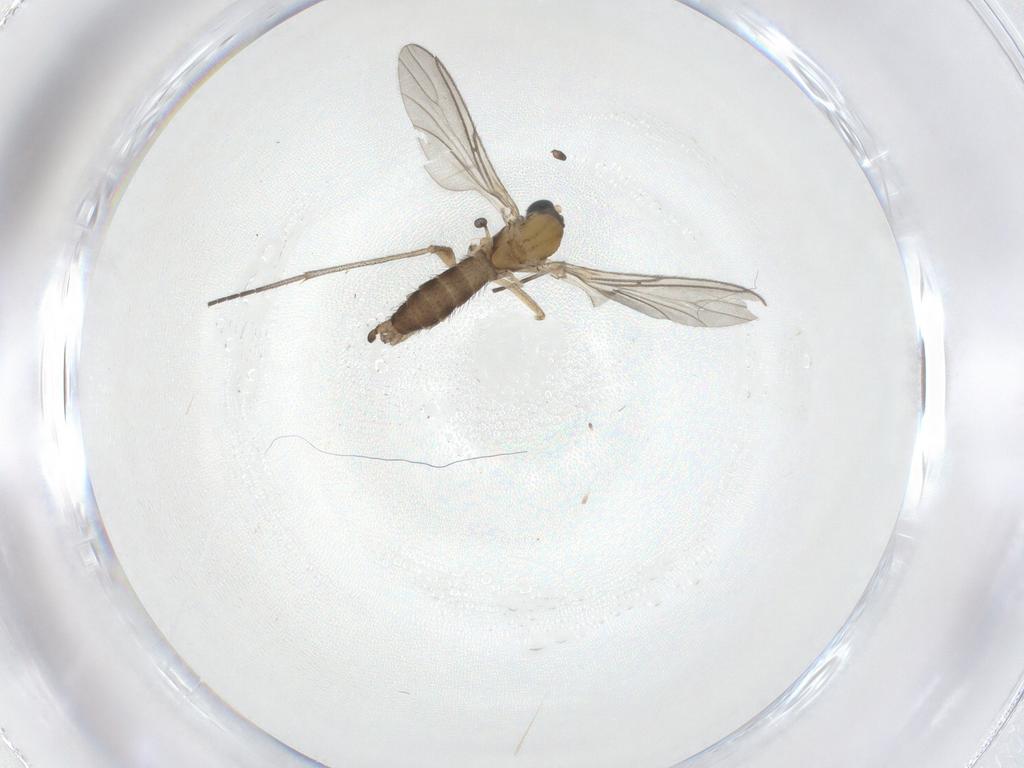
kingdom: Animalia
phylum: Arthropoda
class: Insecta
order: Diptera
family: Sciaridae
